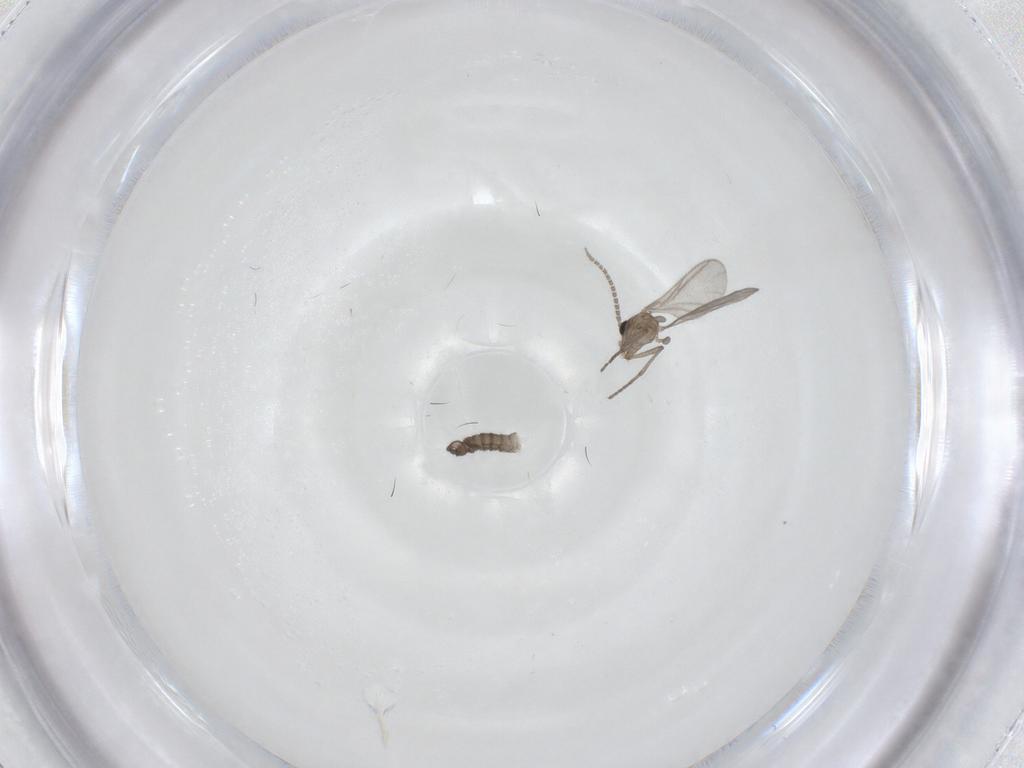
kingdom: Animalia
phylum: Arthropoda
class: Insecta
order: Diptera
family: Sciaridae
